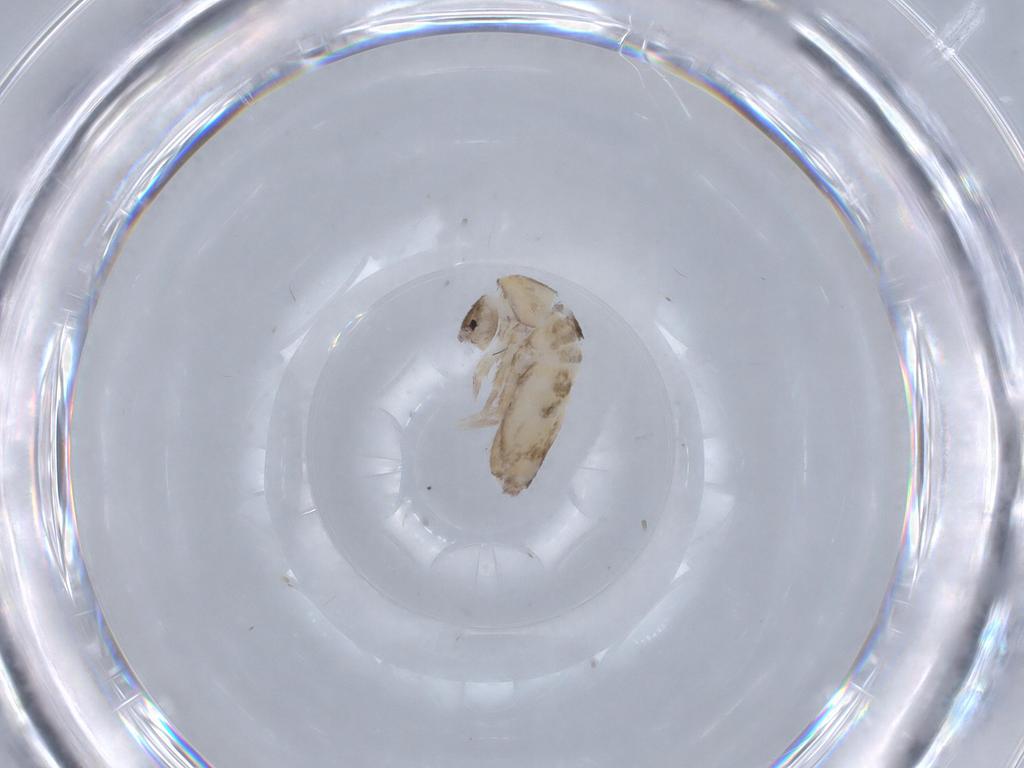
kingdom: Animalia
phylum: Arthropoda
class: Collembola
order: Entomobryomorpha
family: Entomobryidae
